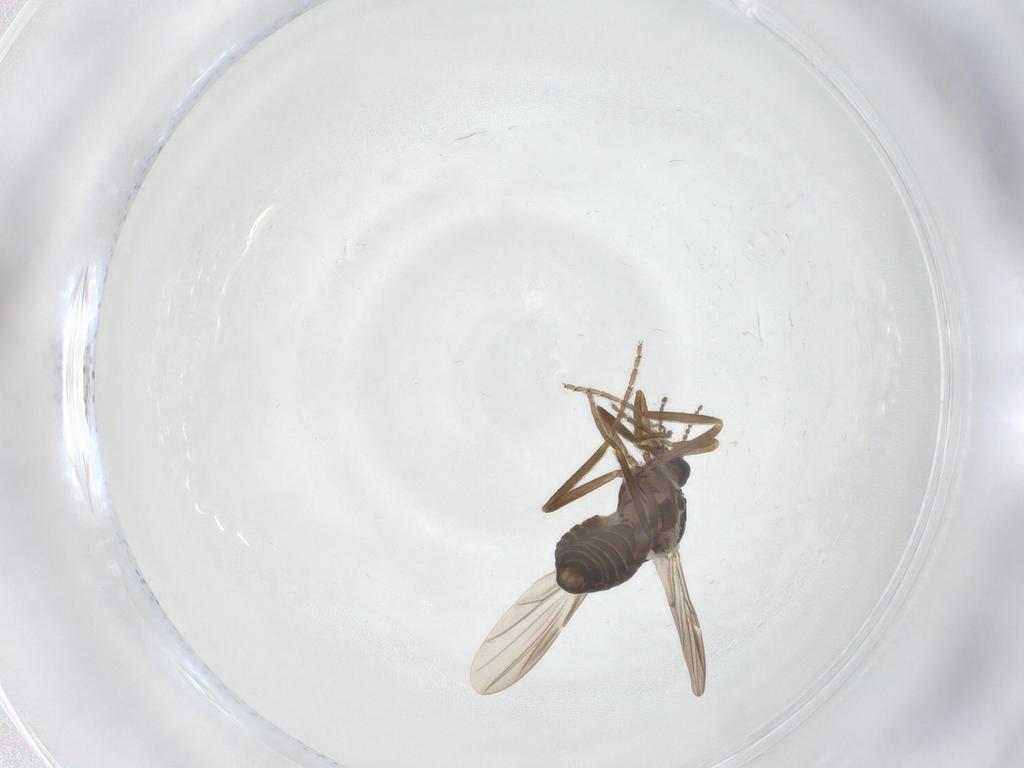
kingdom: Animalia
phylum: Arthropoda
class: Insecta
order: Diptera
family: Ceratopogonidae
